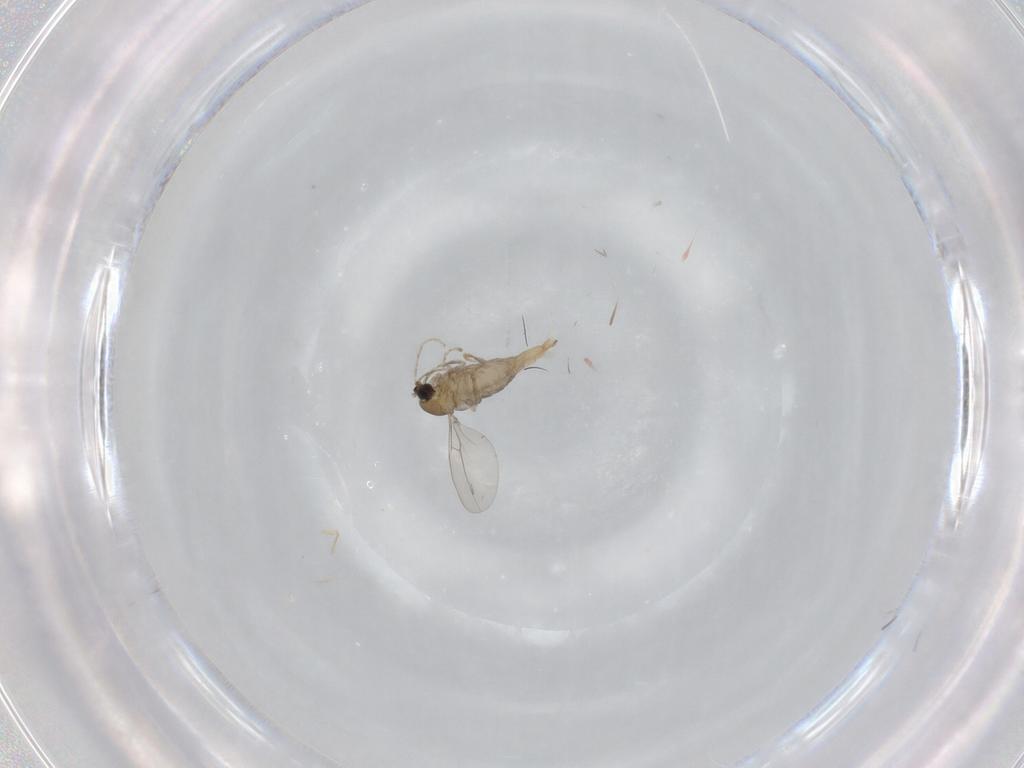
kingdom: Animalia
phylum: Arthropoda
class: Insecta
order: Diptera
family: Cecidomyiidae
